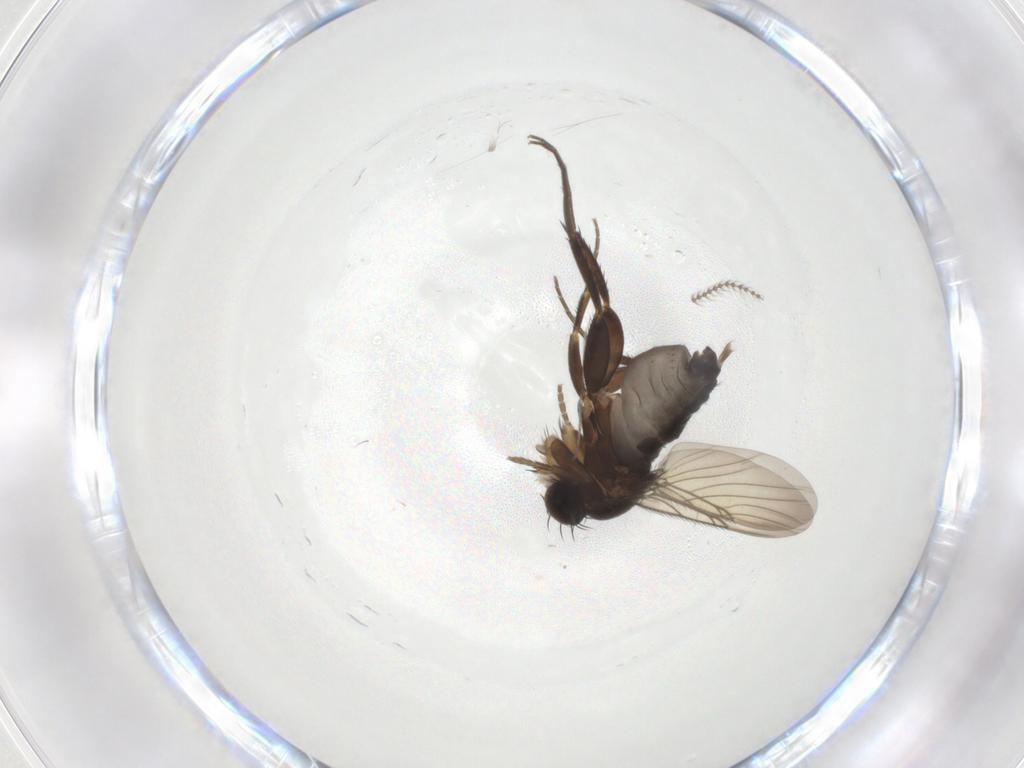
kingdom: Animalia
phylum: Arthropoda
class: Insecta
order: Diptera
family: Phoridae
